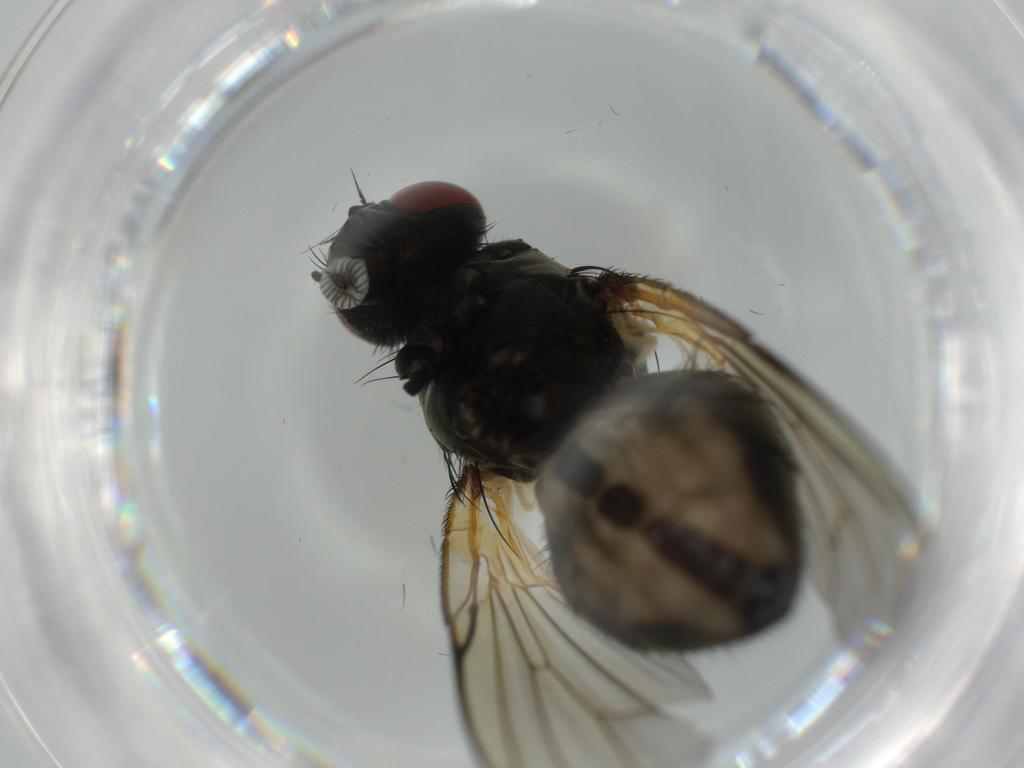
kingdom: Animalia
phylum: Arthropoda
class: Insecta
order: Diptera
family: Muscidae
